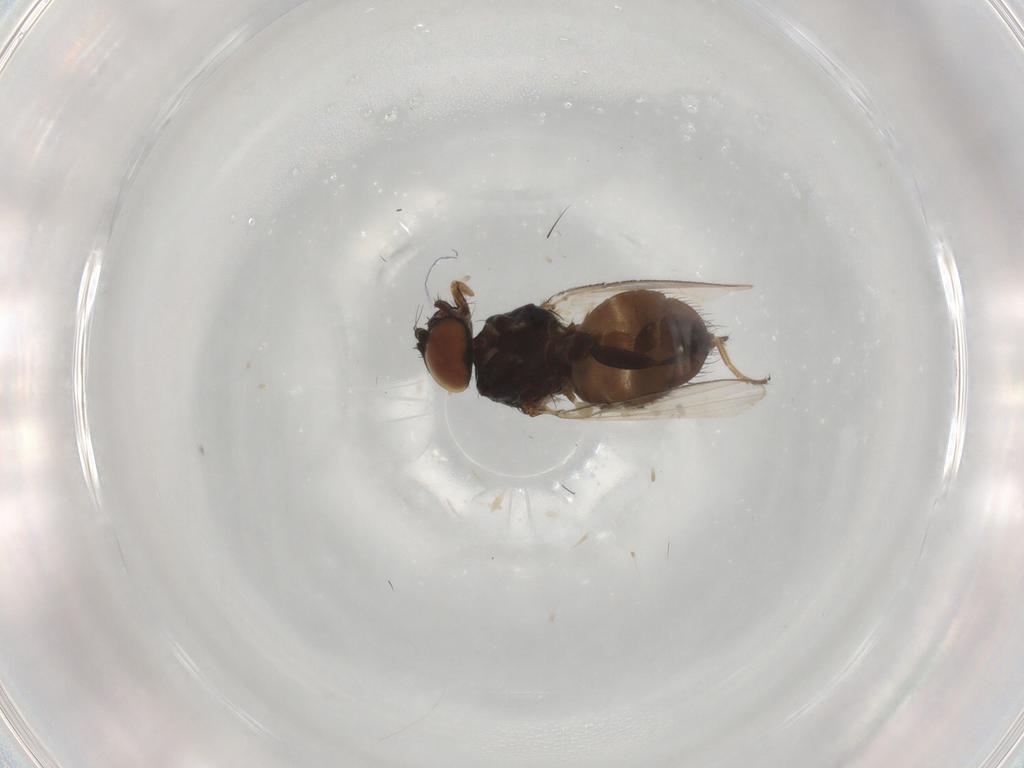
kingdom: Animalia
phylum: Arthropoda
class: Insecta
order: Diptera
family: Milichiidae
